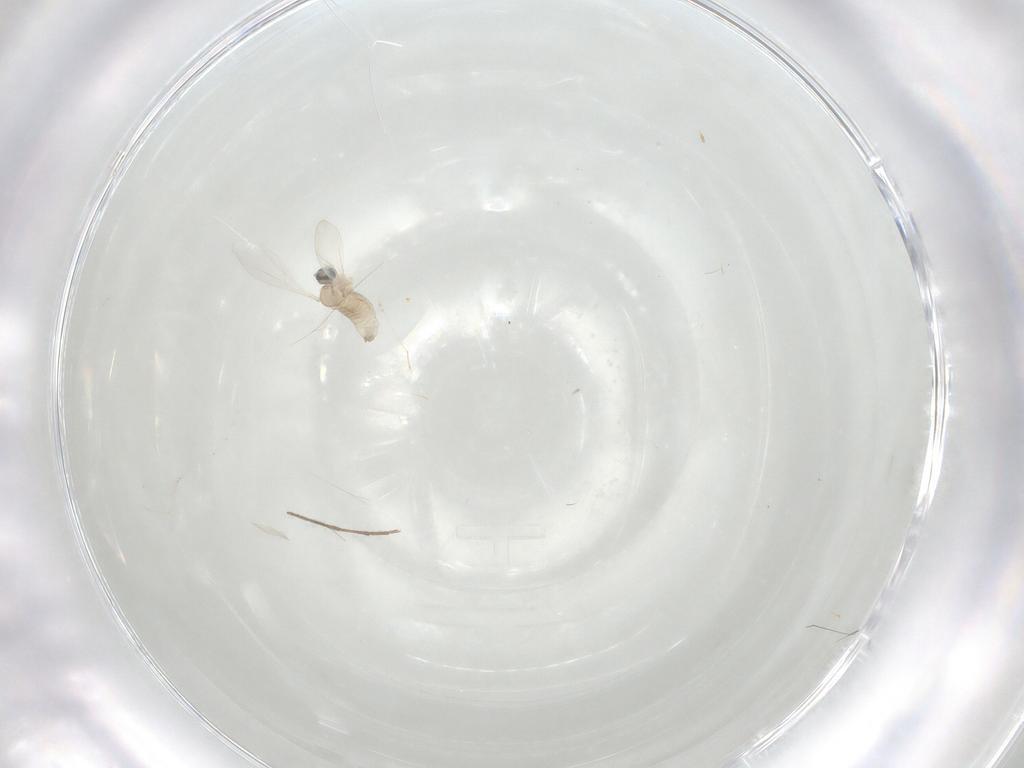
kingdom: Animalia
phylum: Arthropoda
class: Insecta
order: Diptera
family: Chironomidae
